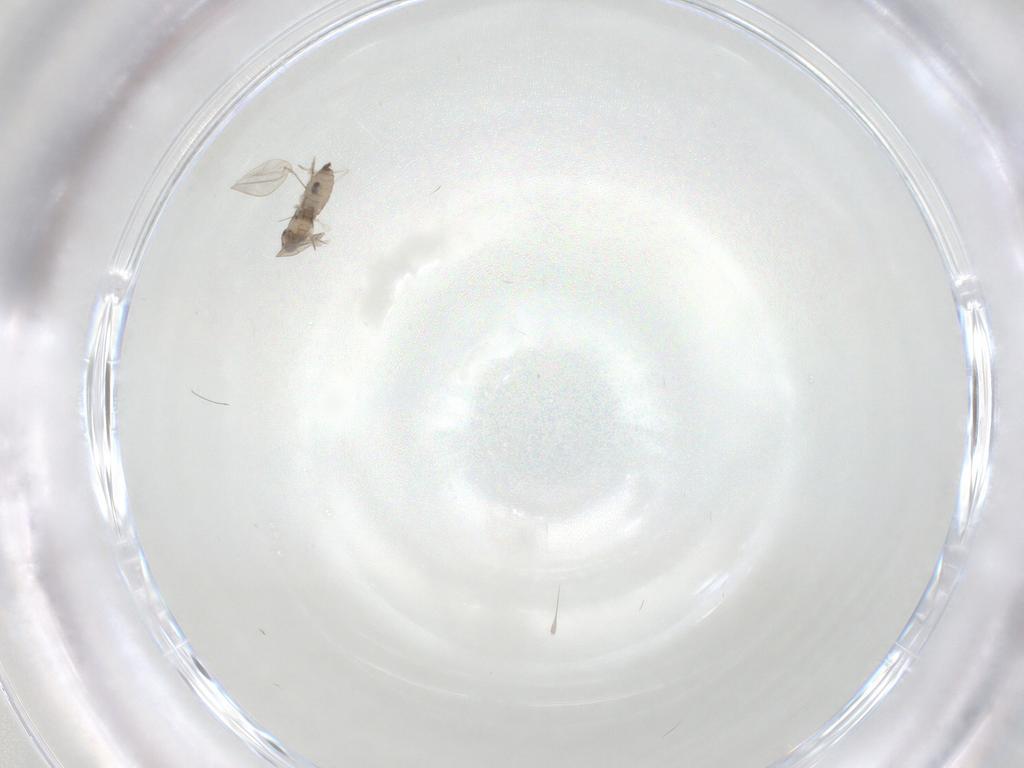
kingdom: Animalia
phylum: Arthropoda
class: Insecta
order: Diptera
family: Cecidomyiidae
